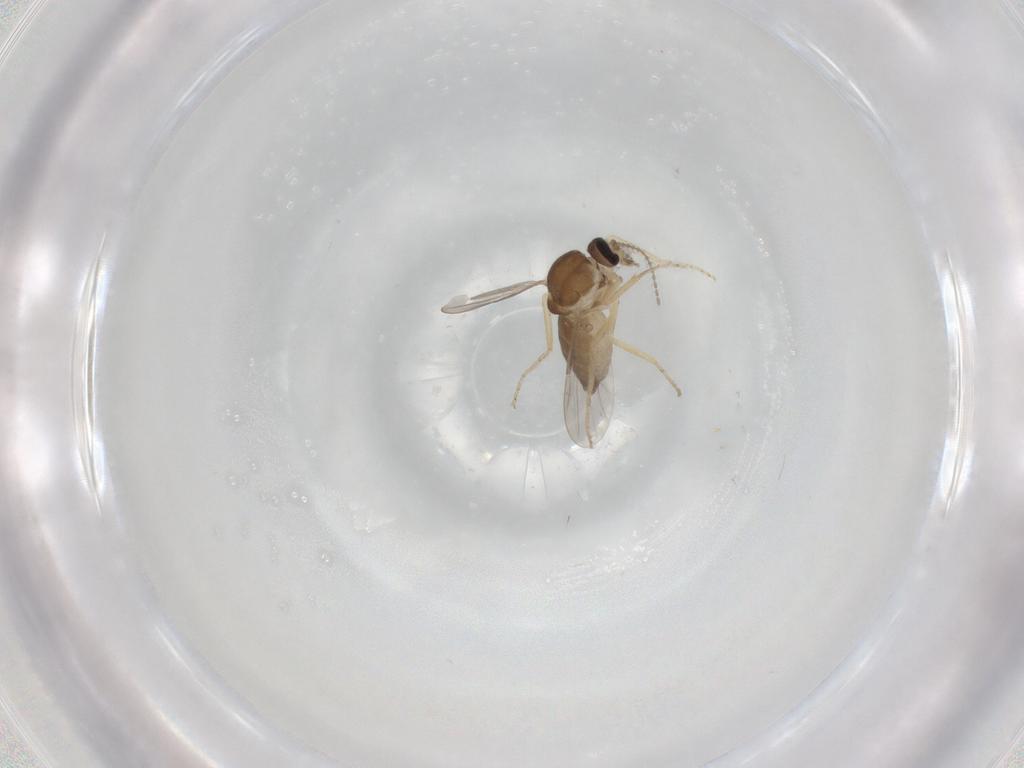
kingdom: Animalia
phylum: Arthropoda
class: Insecta
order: Diptera
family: Ceratopogonidae
